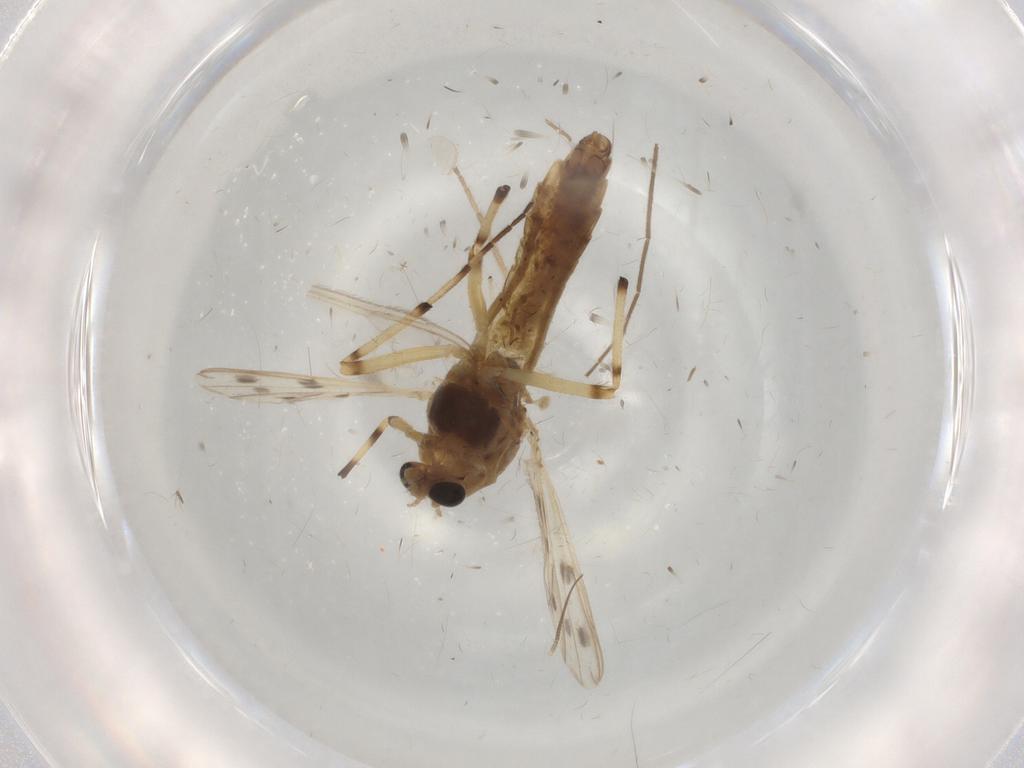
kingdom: Animalia
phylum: Arthropoda
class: Insecta
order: Diptera
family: Chironomidae
